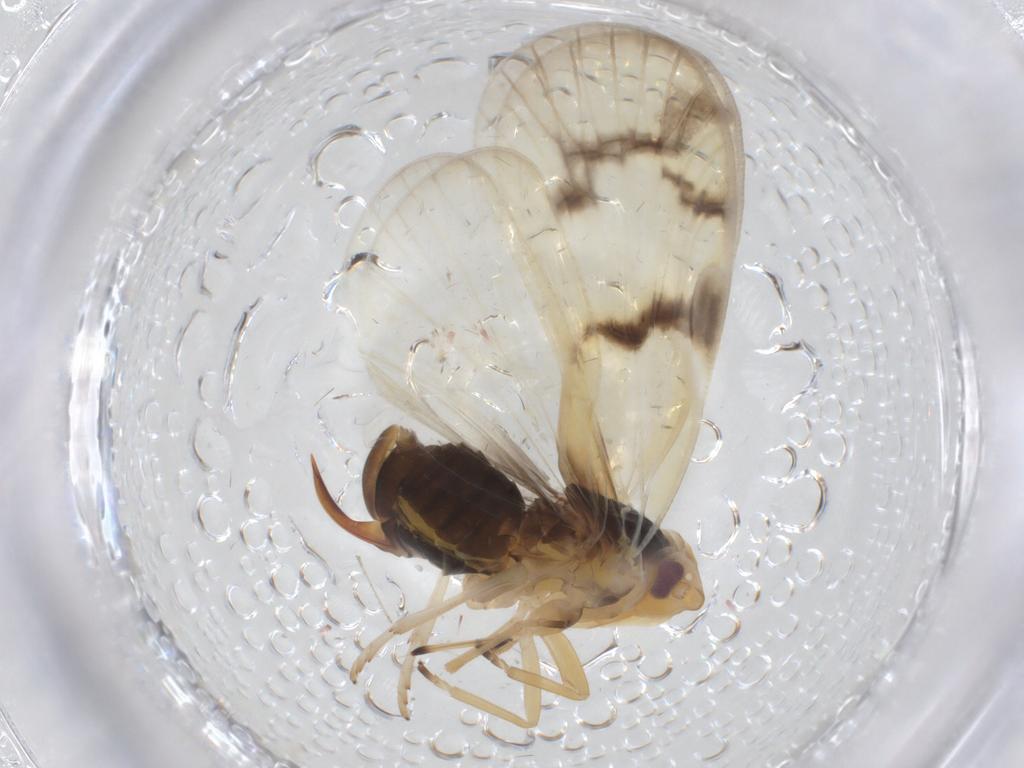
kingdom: Animalia
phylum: Arthropoda
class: Insecta
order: Hemiptera
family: Cixiidae
